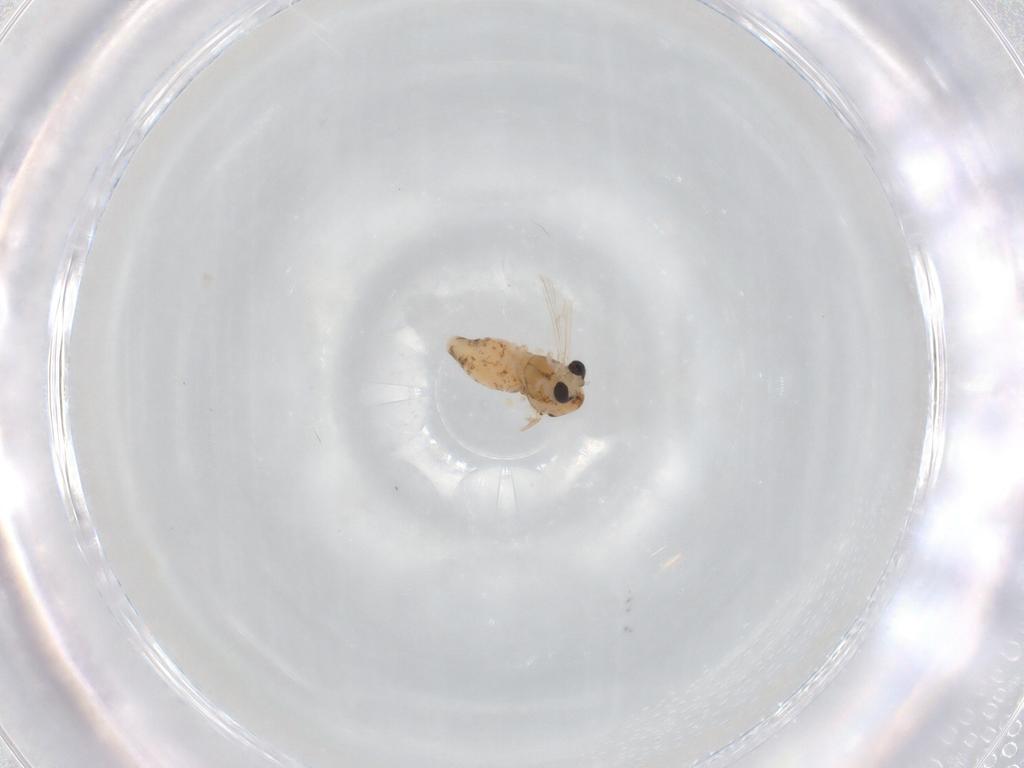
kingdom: Animalia
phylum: Arthropoda
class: Insecta
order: Diptera
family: Chironomidae
